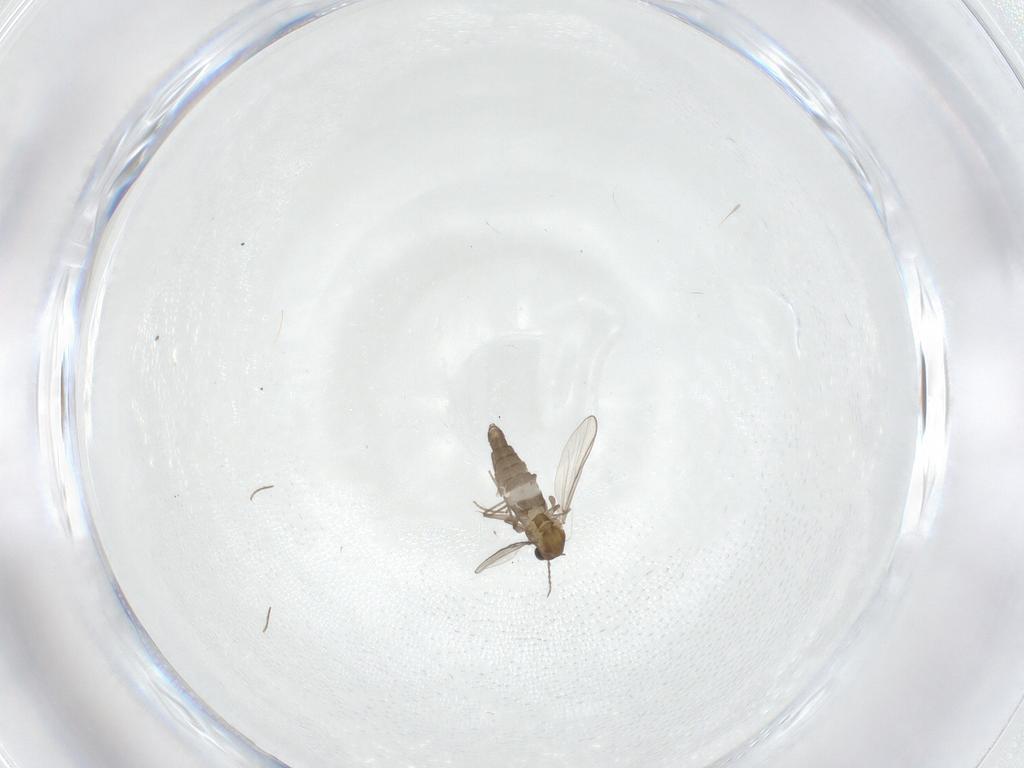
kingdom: Animalia
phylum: Arthropoda
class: Insecta
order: Diptera
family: Chironomidae
